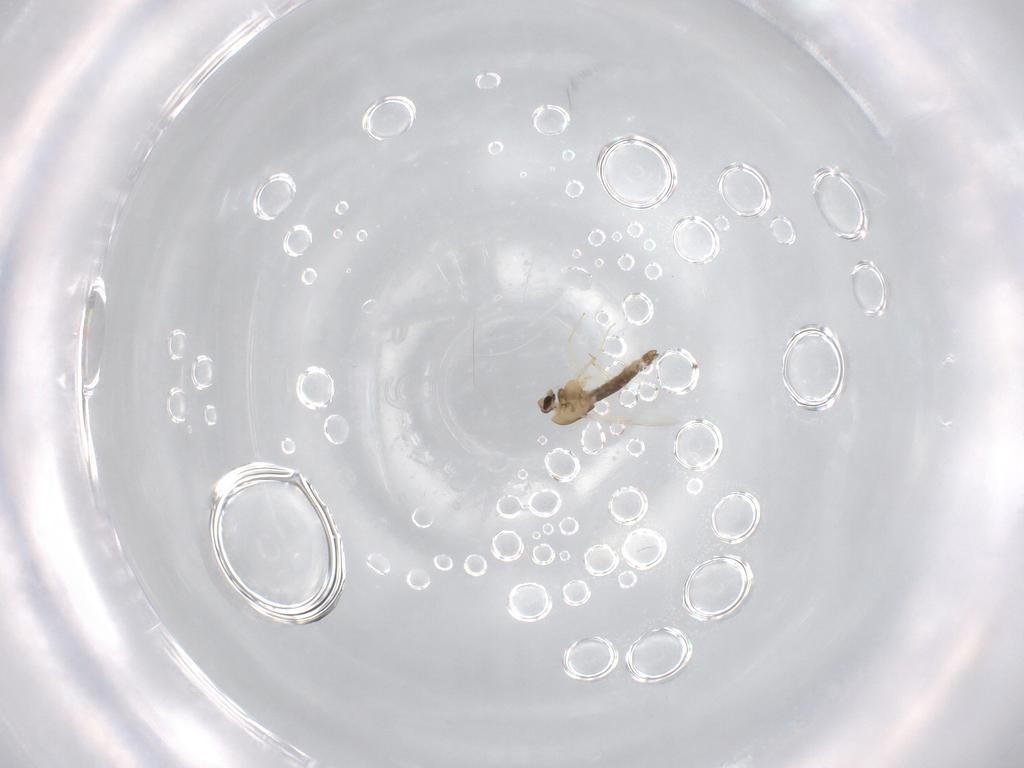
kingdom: Animalia
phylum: Arthropoda
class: Insecta
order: Diptera
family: Chironomidae
